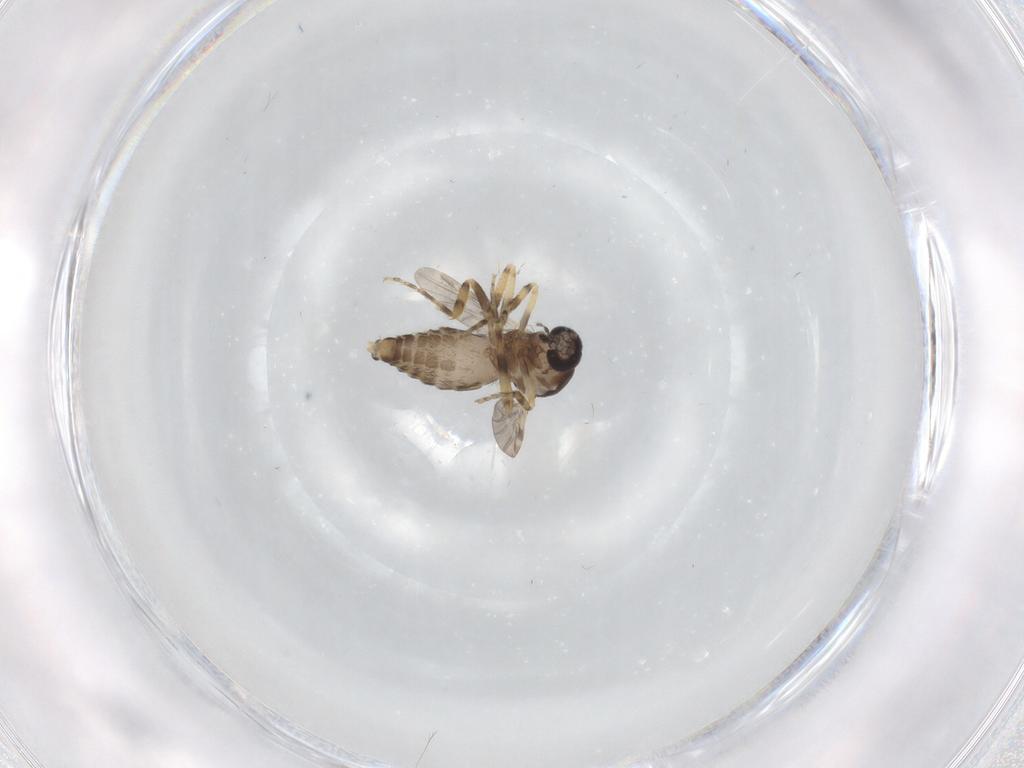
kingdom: Animalia
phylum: Arthropoda
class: Insecta
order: Diptera
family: Ceratopogonidae
